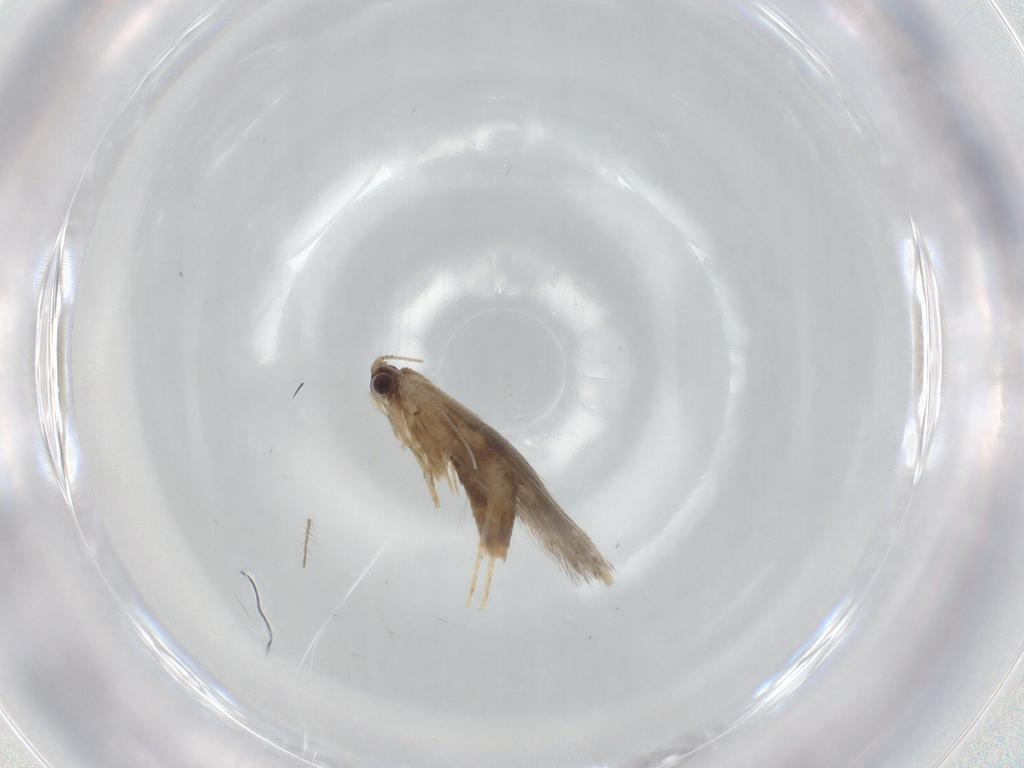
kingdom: Animalia
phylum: Arthropoda
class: Insecta
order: Lepidoptera
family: Tineidae
